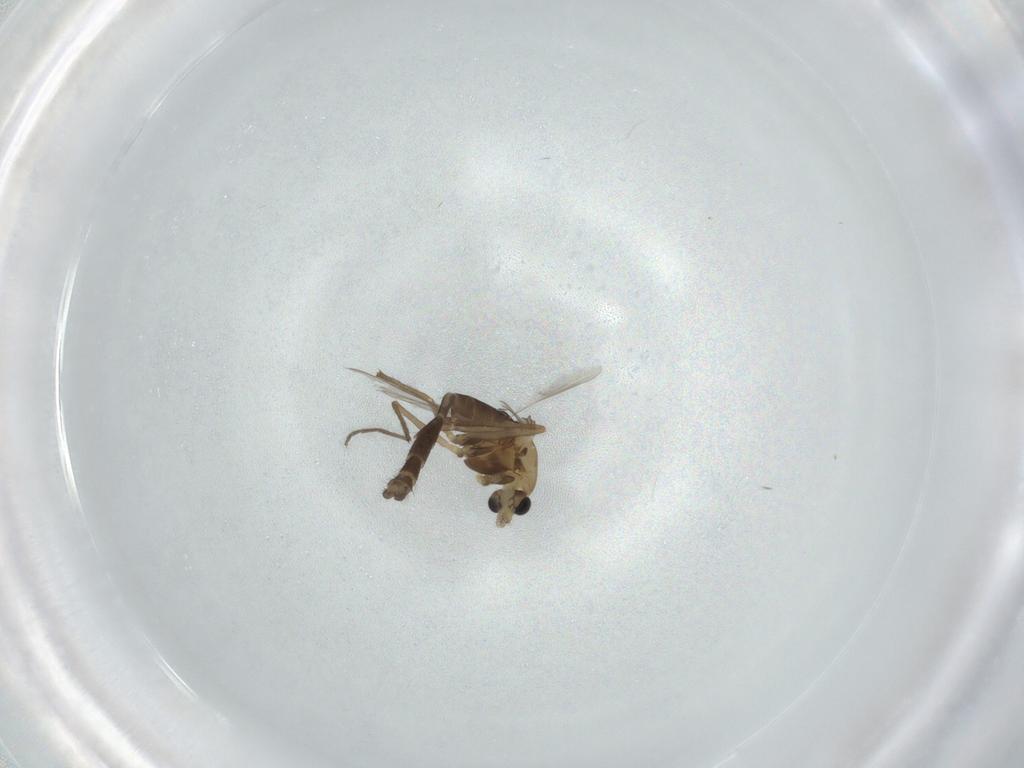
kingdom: Animalia
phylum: Arthropoda
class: Insecta
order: Diptera
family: Chironomidae
